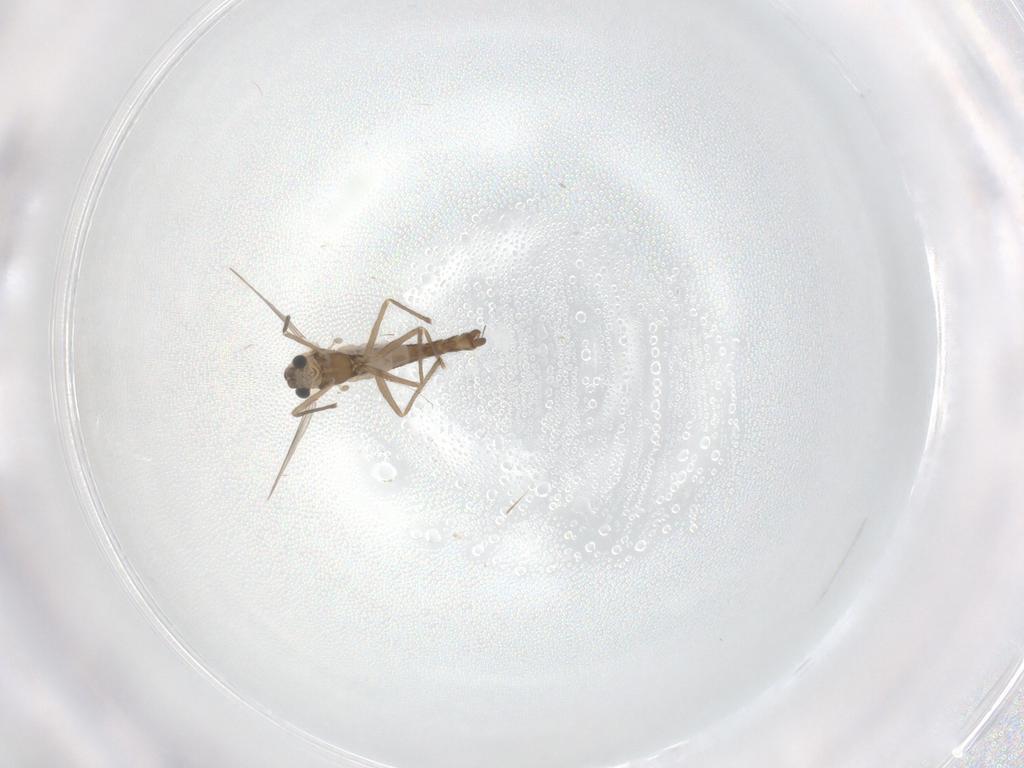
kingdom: Animalia
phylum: Arthropoda
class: Insecta
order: Diptera
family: Chironomidae
